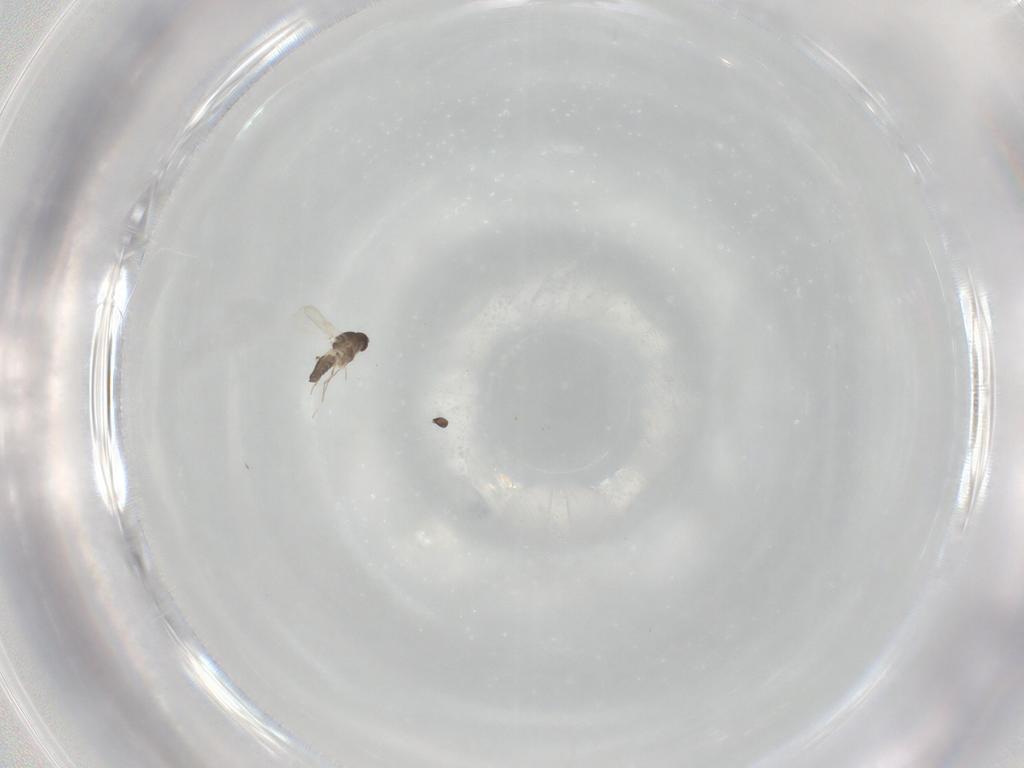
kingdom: Animalia
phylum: Arthropoda
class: Insecta
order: Diptera
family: Ceratopogonidae
